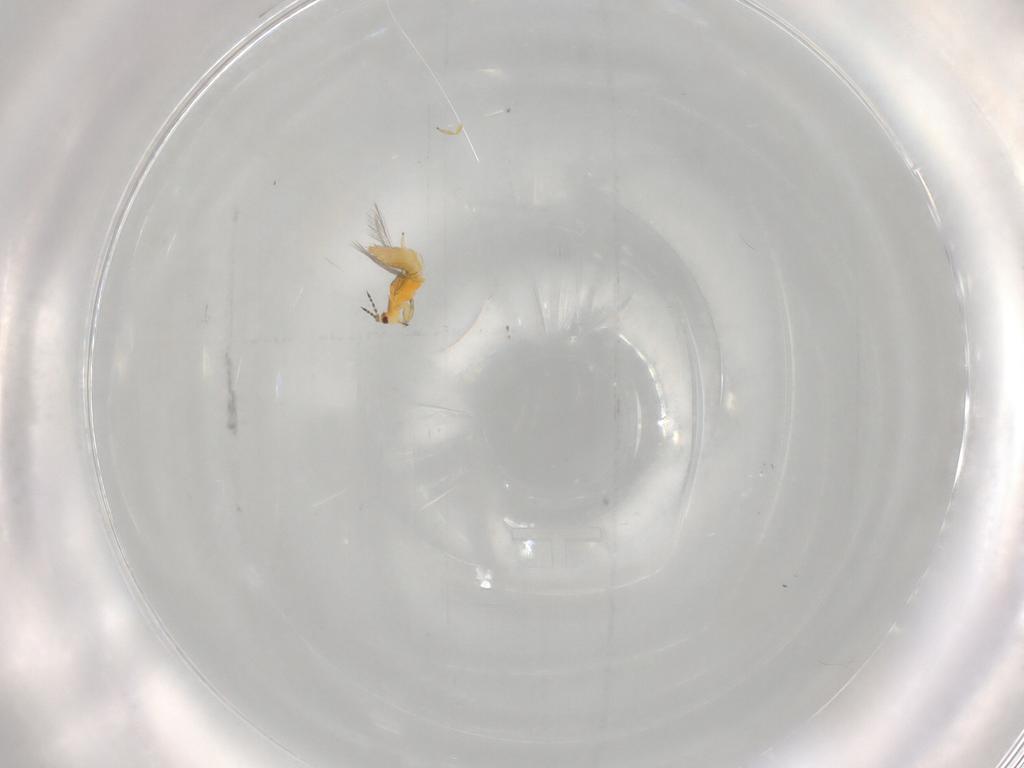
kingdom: Animalia
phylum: Arthropoda
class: Insecta
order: Thysanoptera
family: Thripidae
